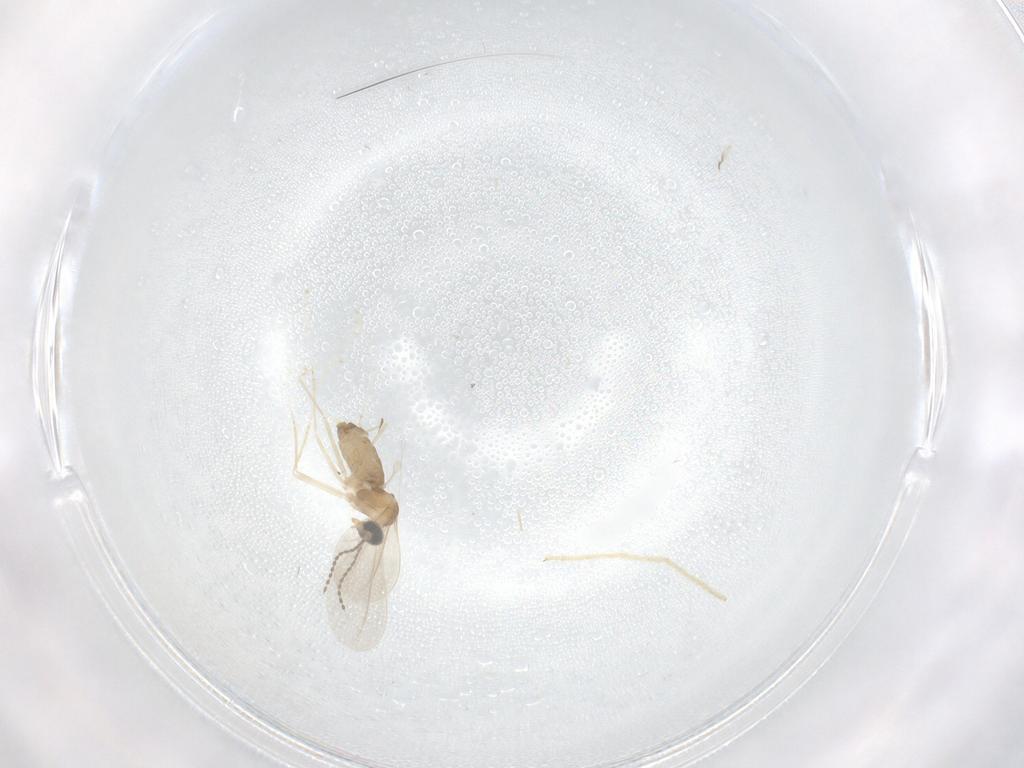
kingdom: Animalia
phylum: Arthropoda
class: Insecta
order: Diptera
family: Cecidomyiidae
